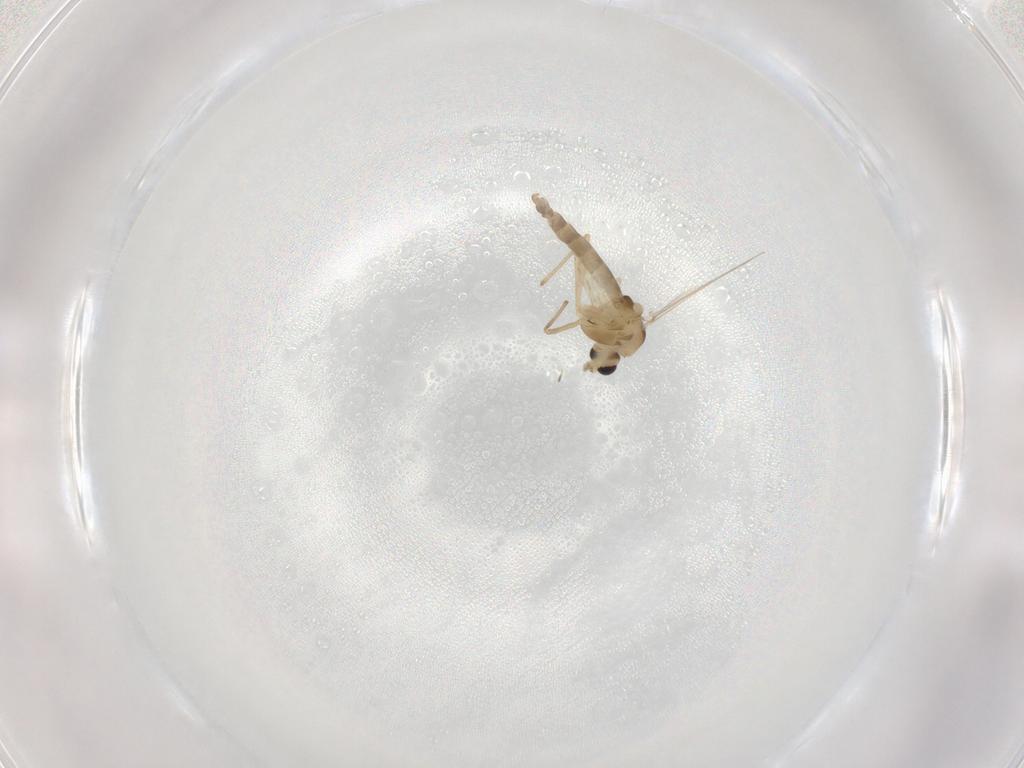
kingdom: Animalia
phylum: Arthropoda
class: Insecta
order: Diptera
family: Chironomidae
